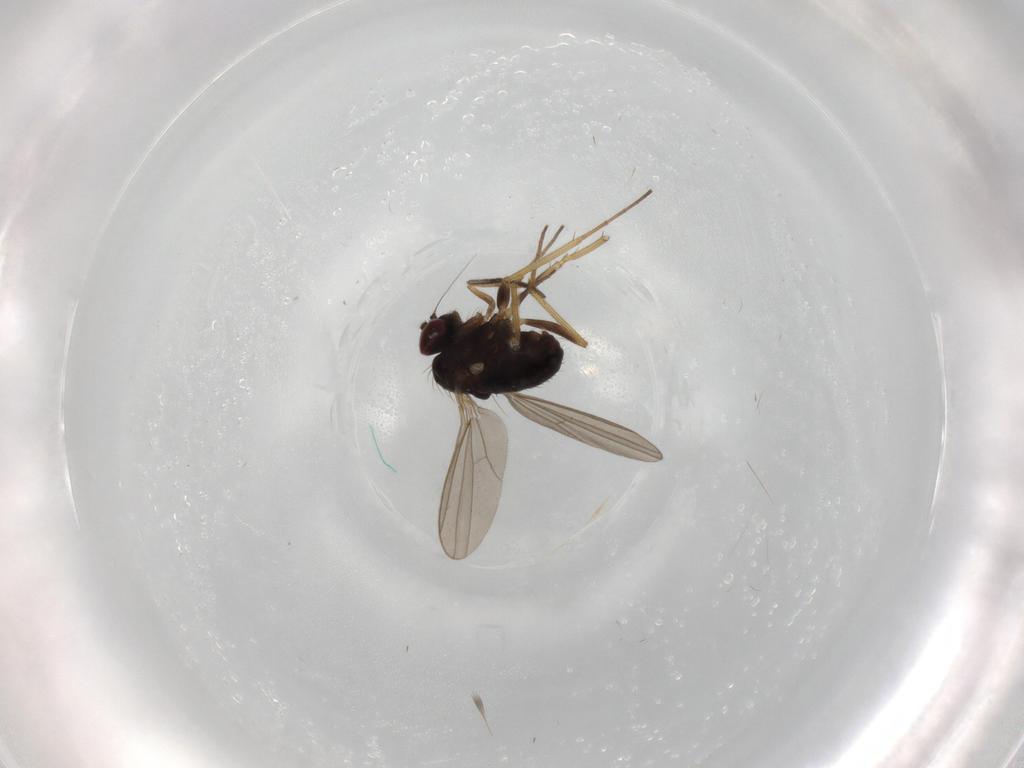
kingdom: Animalia
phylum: Arthropoda
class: Insecta
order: Diptera
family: Dolichopodidae
